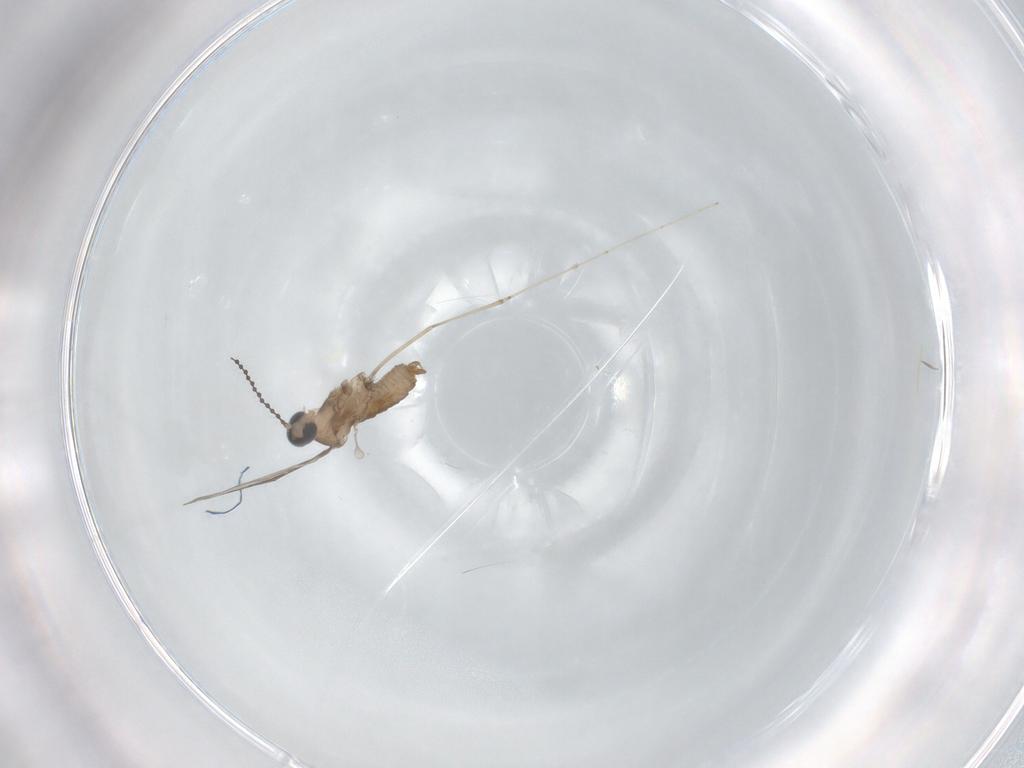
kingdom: Animalia
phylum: Arthropoda
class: Insecta
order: Diptera
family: Cecidomyiidae
